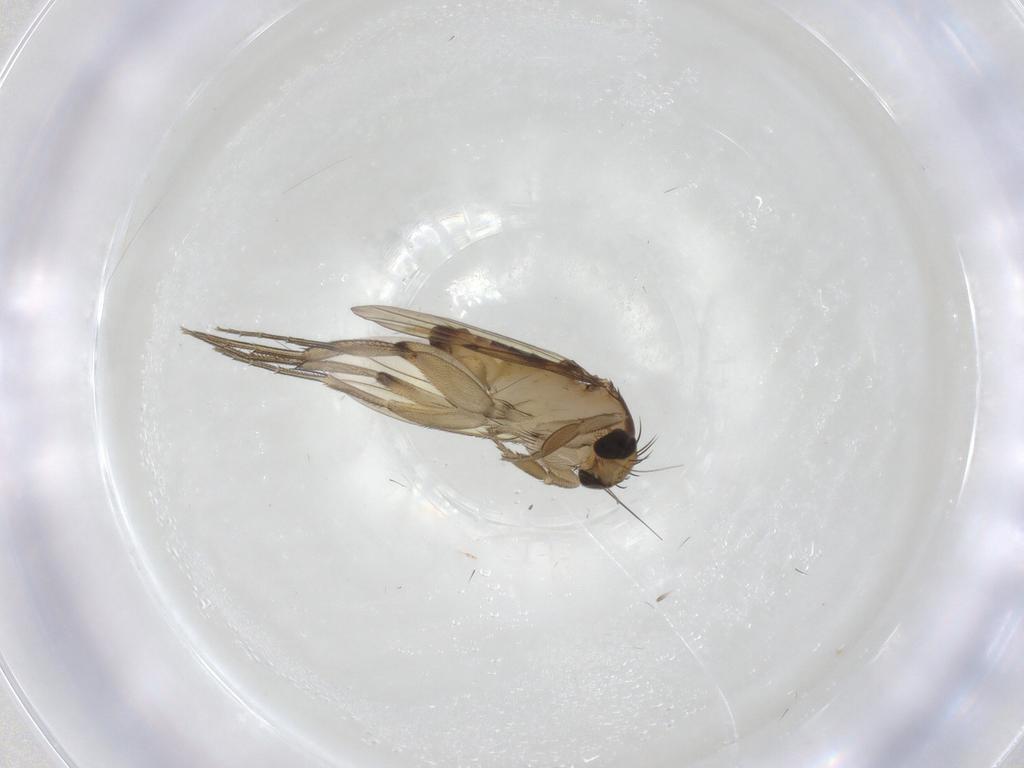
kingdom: Animalia
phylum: Arthropoda
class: Insecta
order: Diptera
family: Phoridae
